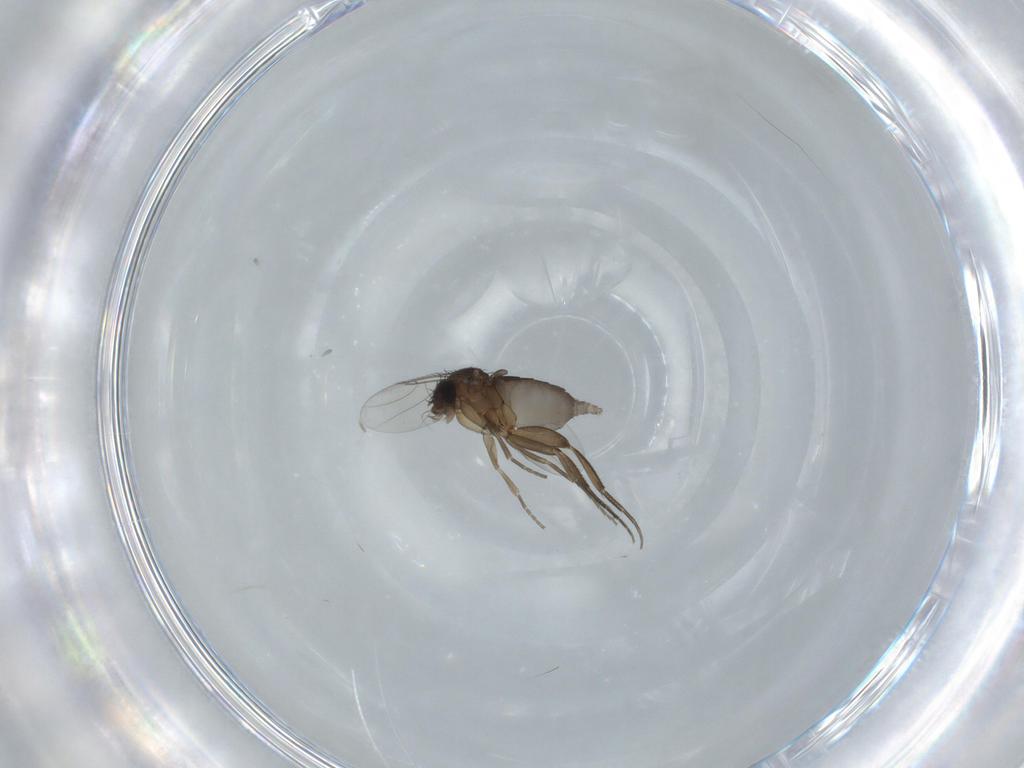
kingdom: Animalia
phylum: Arthropoda
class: Insecta
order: Diptera
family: Phoridae
